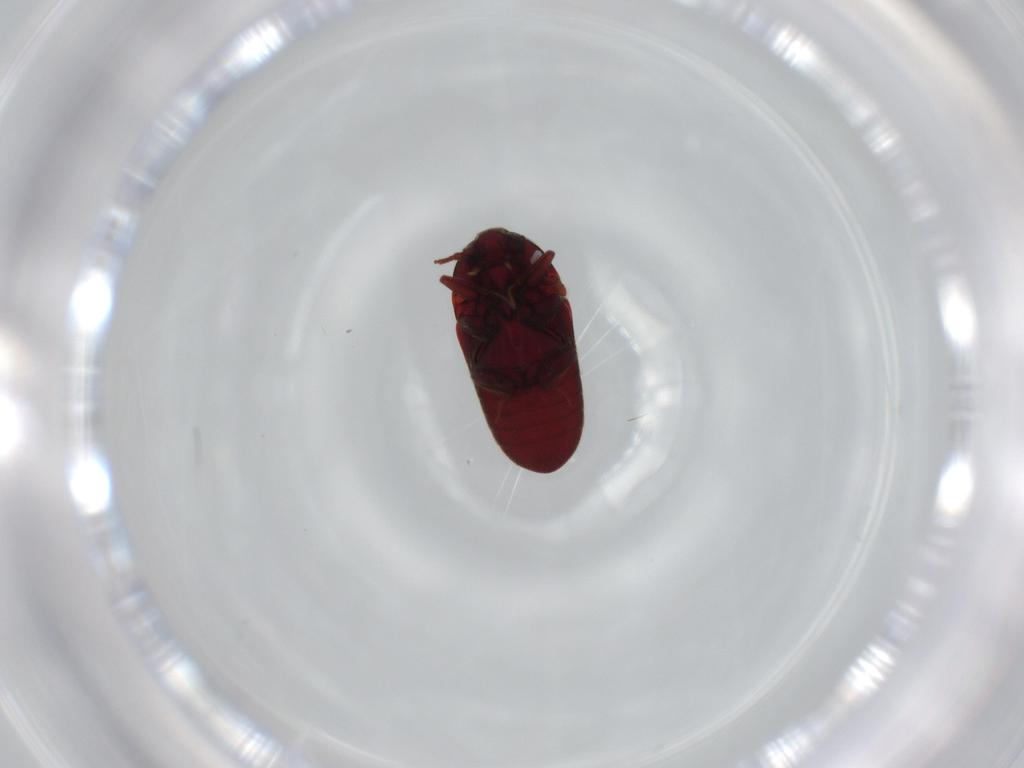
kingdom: Animalia
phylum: Arthropoda
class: Insecta
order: Coleoptera
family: Throscidae
